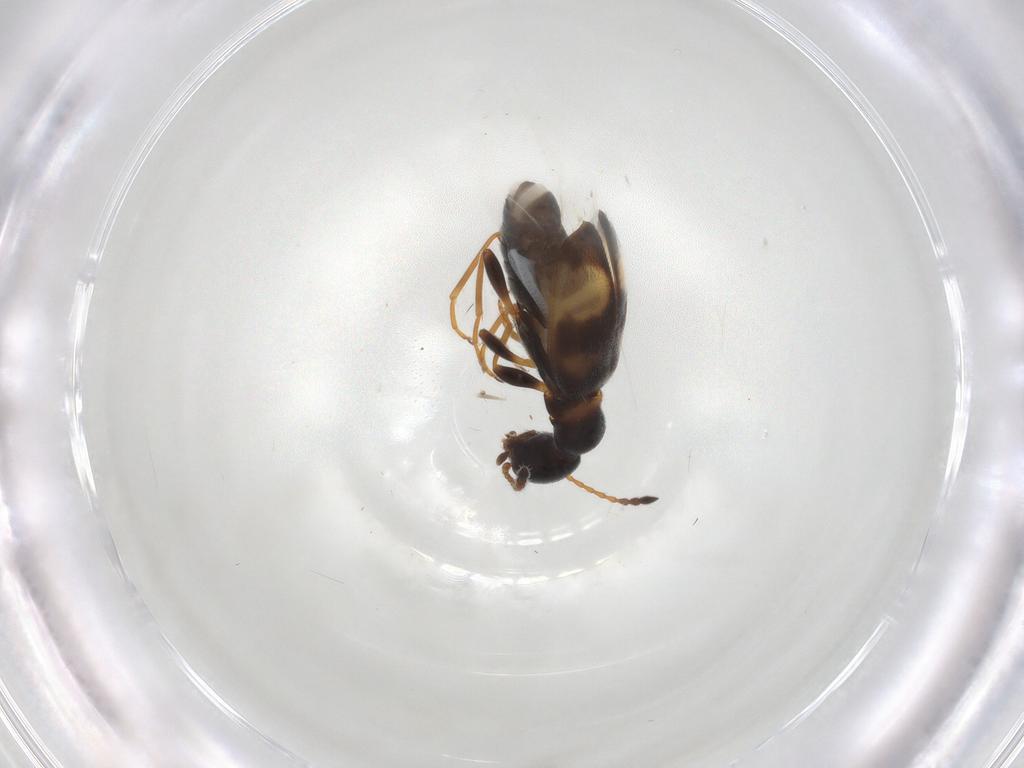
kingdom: Animalia
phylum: Arthropoda
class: Insecta
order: Coleoptera
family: Anthicidae
